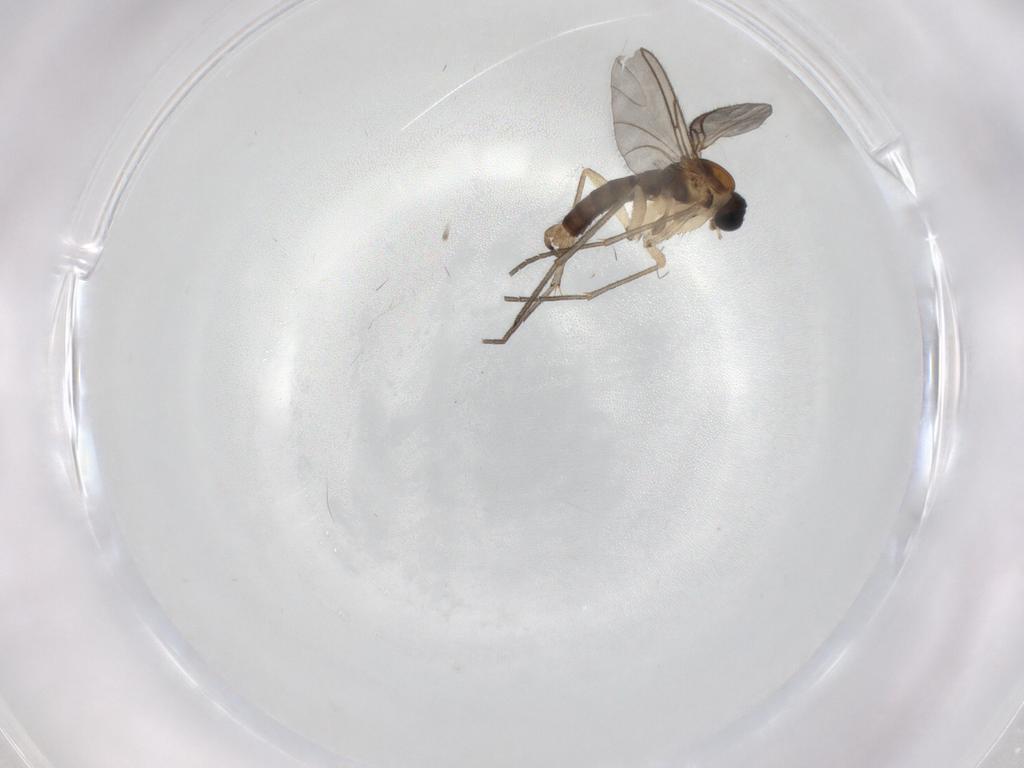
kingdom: Animalia
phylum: Arthropoda
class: Insecta
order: Diptera
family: Sciaridae
